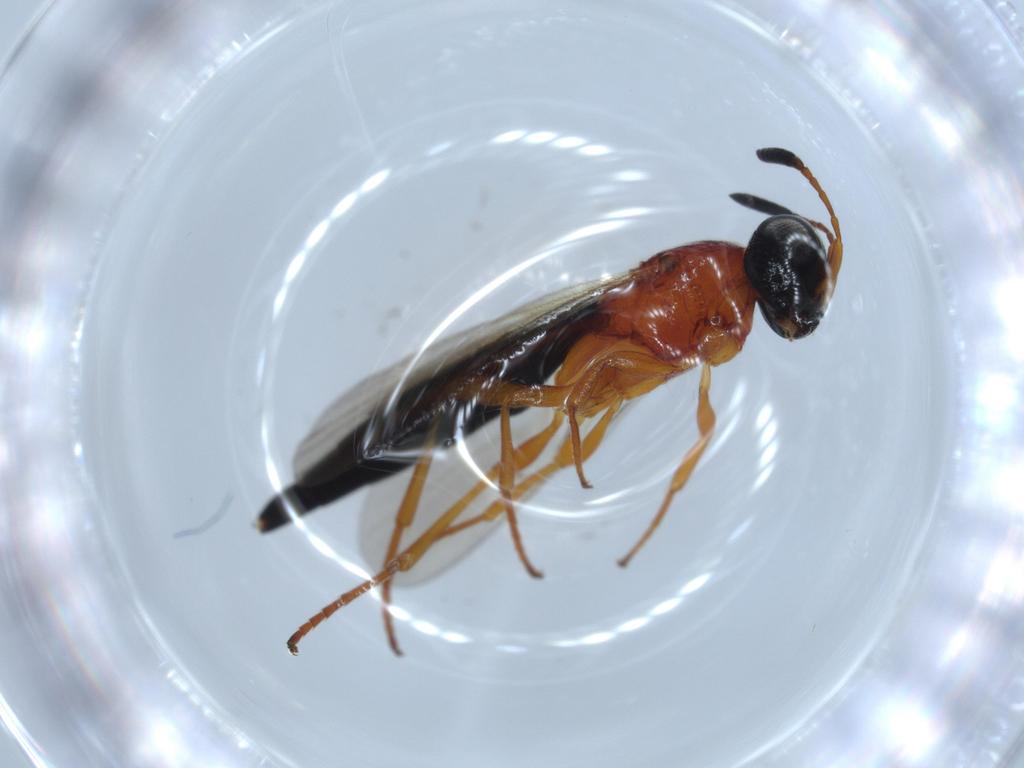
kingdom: Animalia
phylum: Arthropoda
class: Insecta
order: Hymenoptera
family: Scelionidae
